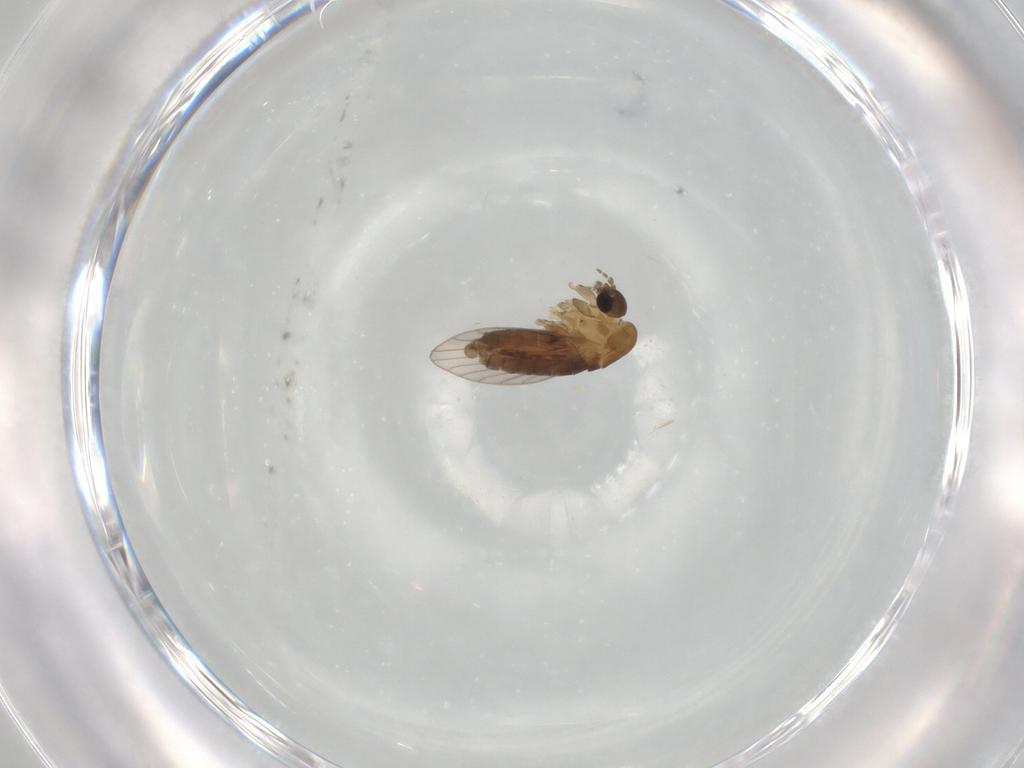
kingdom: Animalia
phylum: Arthropoda
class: Insecta
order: Diptera
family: Psychodidae
